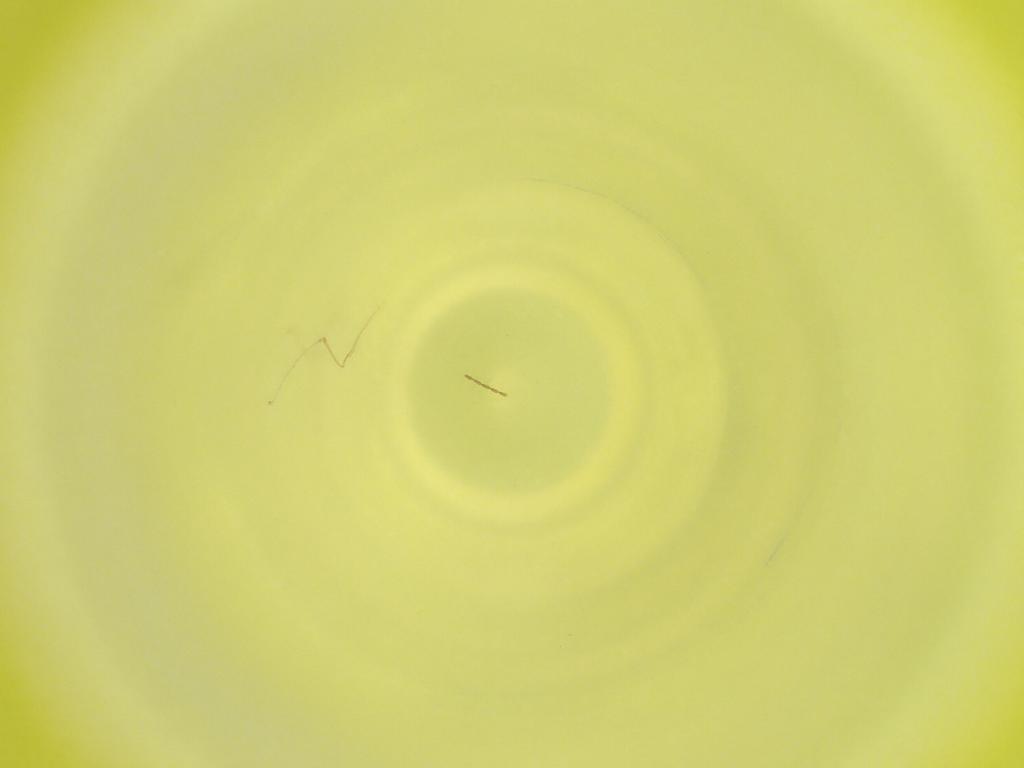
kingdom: Animalia
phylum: Arthropoda
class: Insecta
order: Diptera
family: Cecidomyiidae
